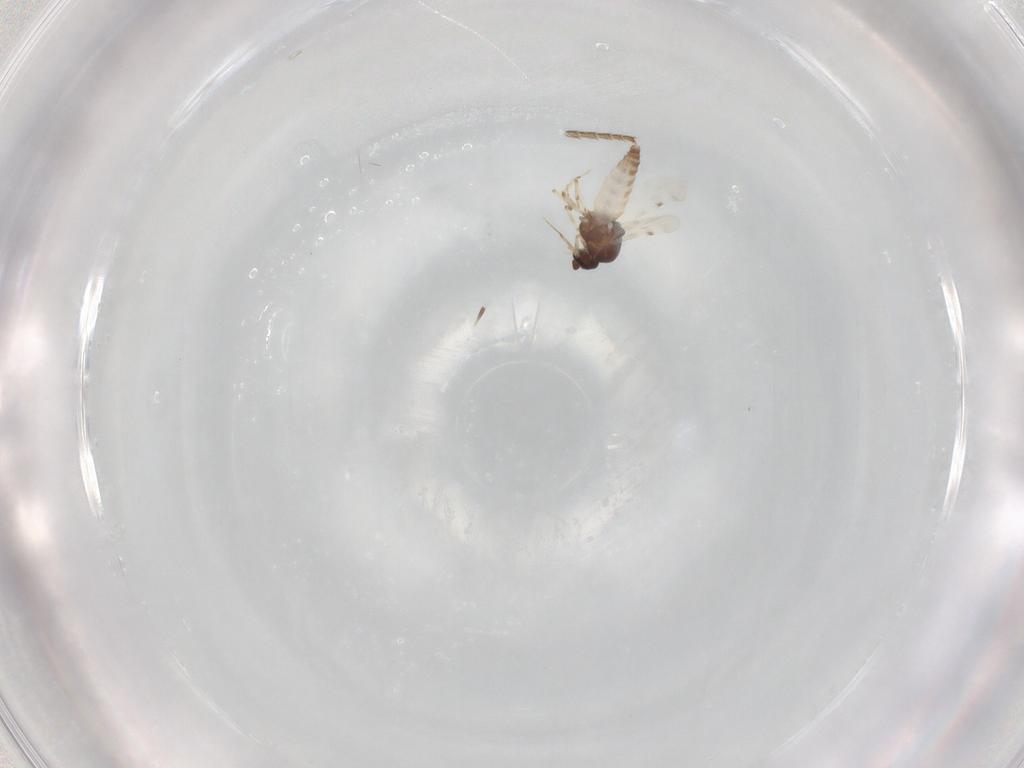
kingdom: Animalia
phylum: Arthropoda
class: Insecta
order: Diptera
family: Dolichopodidae
